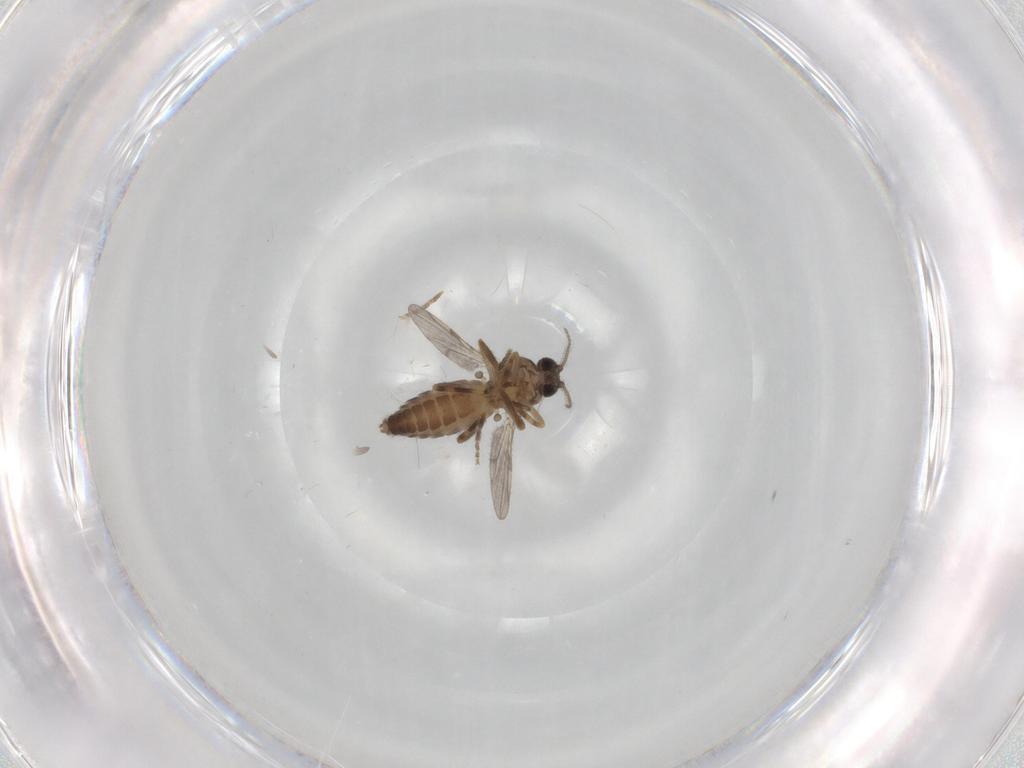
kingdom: Animalia
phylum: Arthropoda
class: Insecta
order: Diptera
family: Ceratopogonidae
